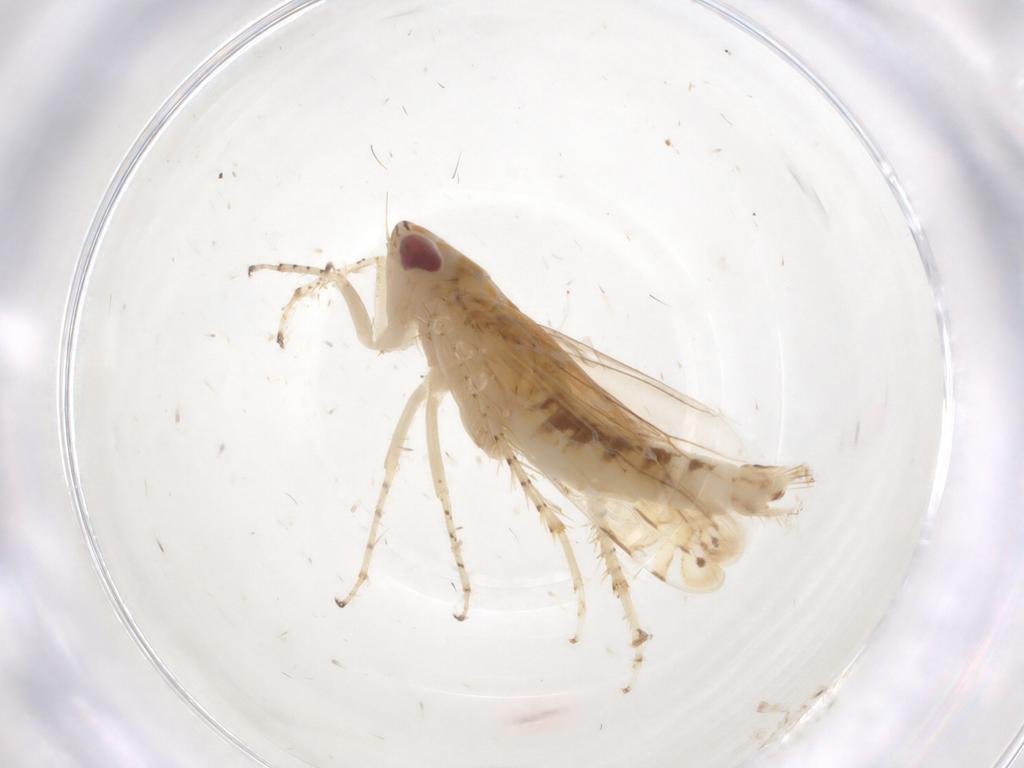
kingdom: Animalia
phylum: Arthropoda
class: Insecta
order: Hemiptera
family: Cicadellidae
